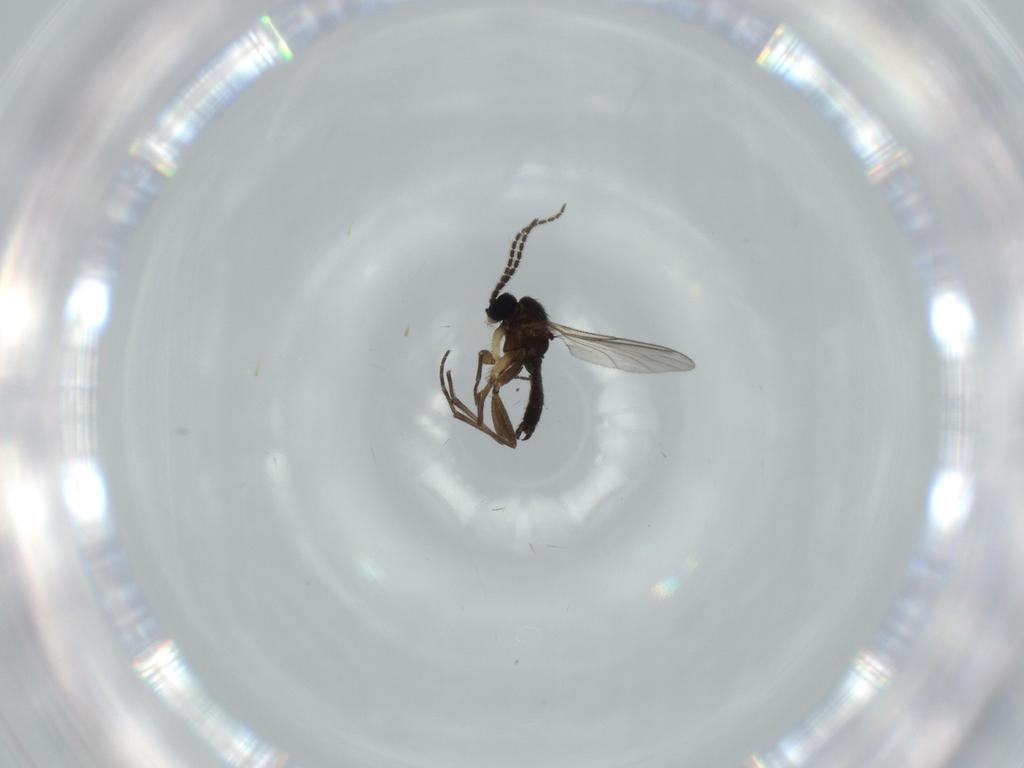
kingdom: Animalia
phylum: Arthropoda
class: Insecta
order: Diptera
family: Sciaridae
